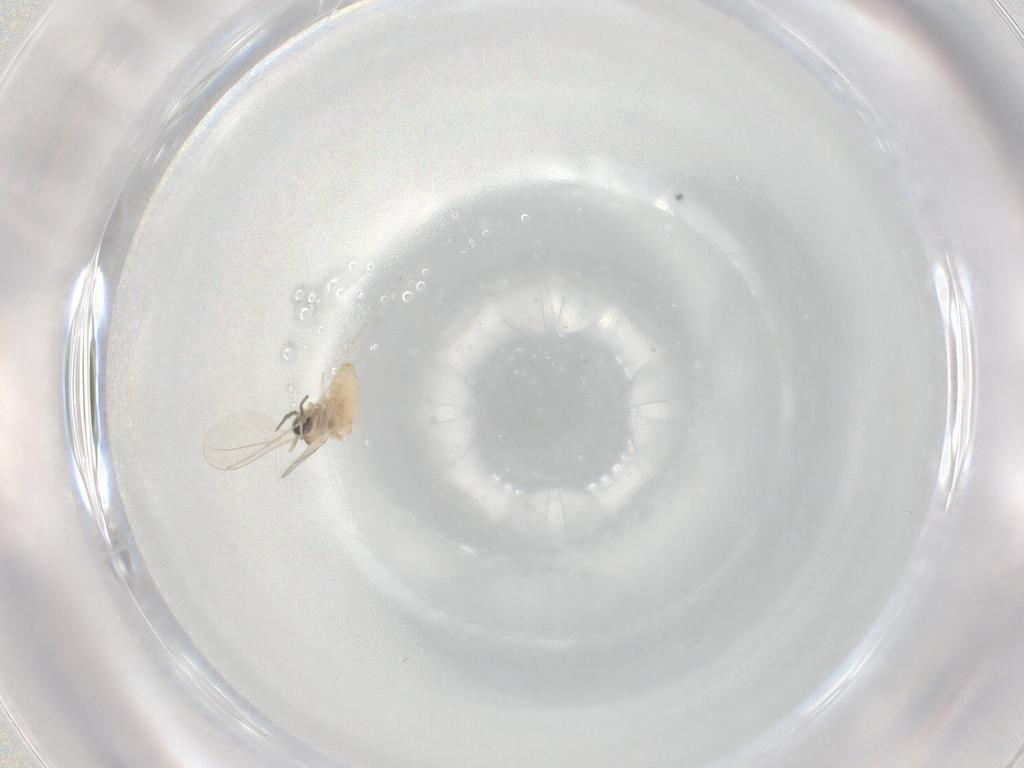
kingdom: Animalia
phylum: Arthropoda
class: Insecta
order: Diptera
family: Cecidomyiidae
